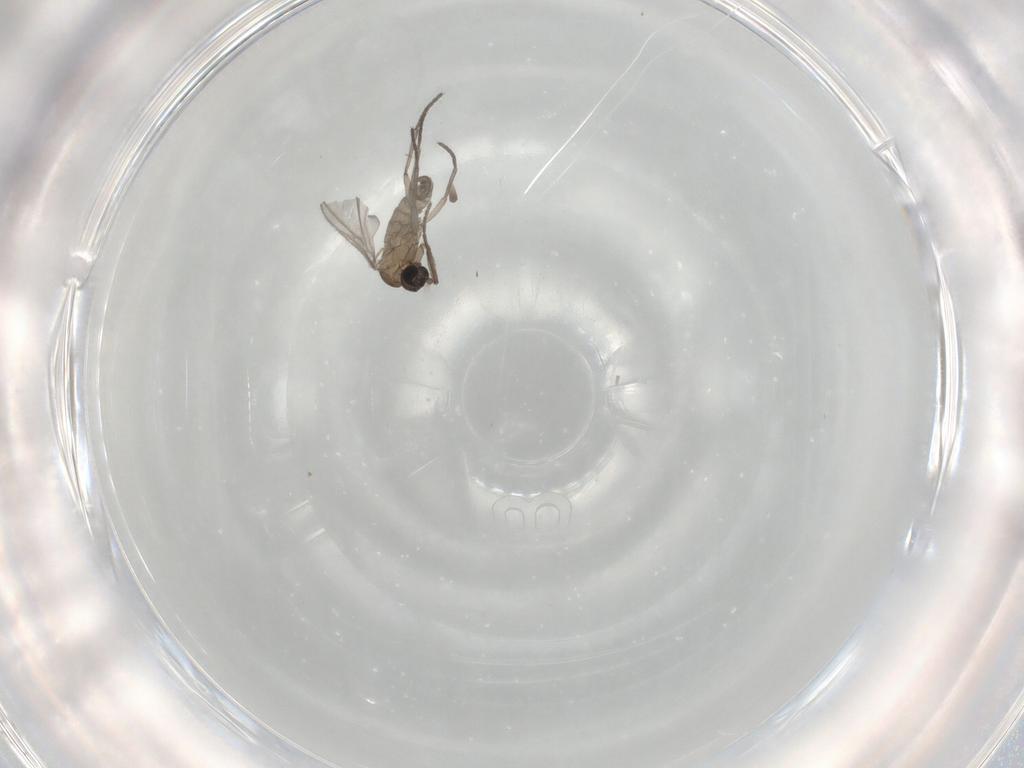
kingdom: Animalia
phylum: Arthropoda
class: Insecta
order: Diptera
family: Sciaridae
